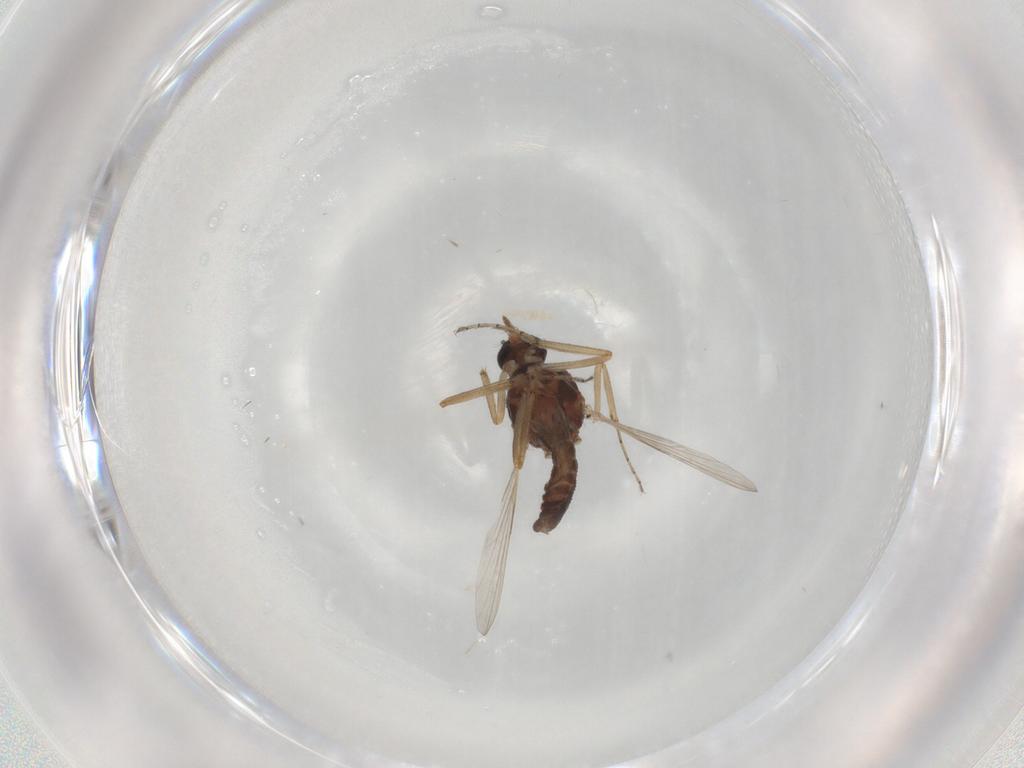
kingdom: Animalia
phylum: Arthropoda
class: Insecta
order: Diptera
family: Ceratopogonidae
